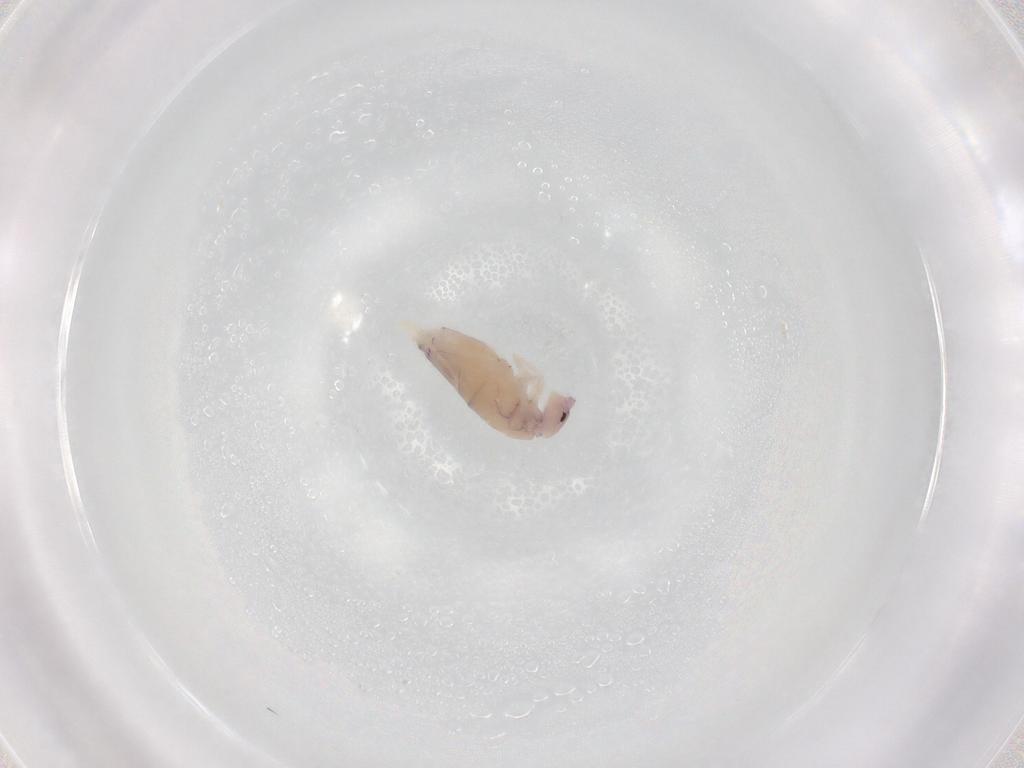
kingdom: Animalia
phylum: Arthropoda
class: Collembola
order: Entomobryomorpha
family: Entomobryidae
